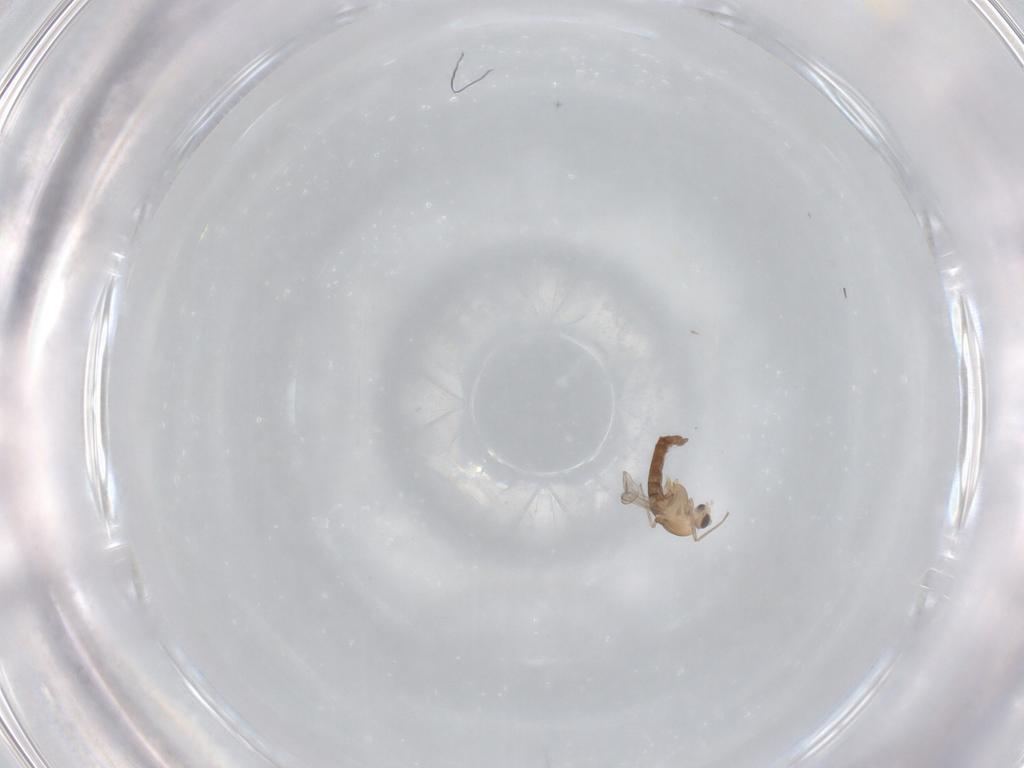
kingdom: Animalia
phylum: Arthropoda
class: Insecta
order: Diptera
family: Chironomidae
